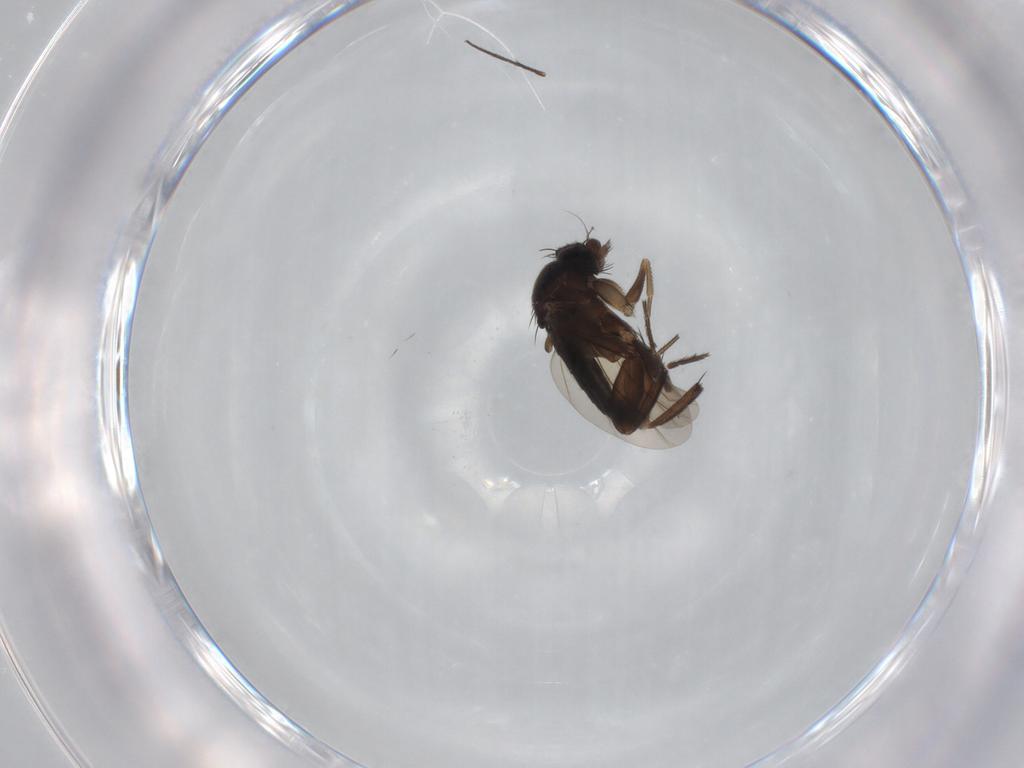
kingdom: Animalia
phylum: Arthropoda
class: Insecta
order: Diptera
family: Phoridae
